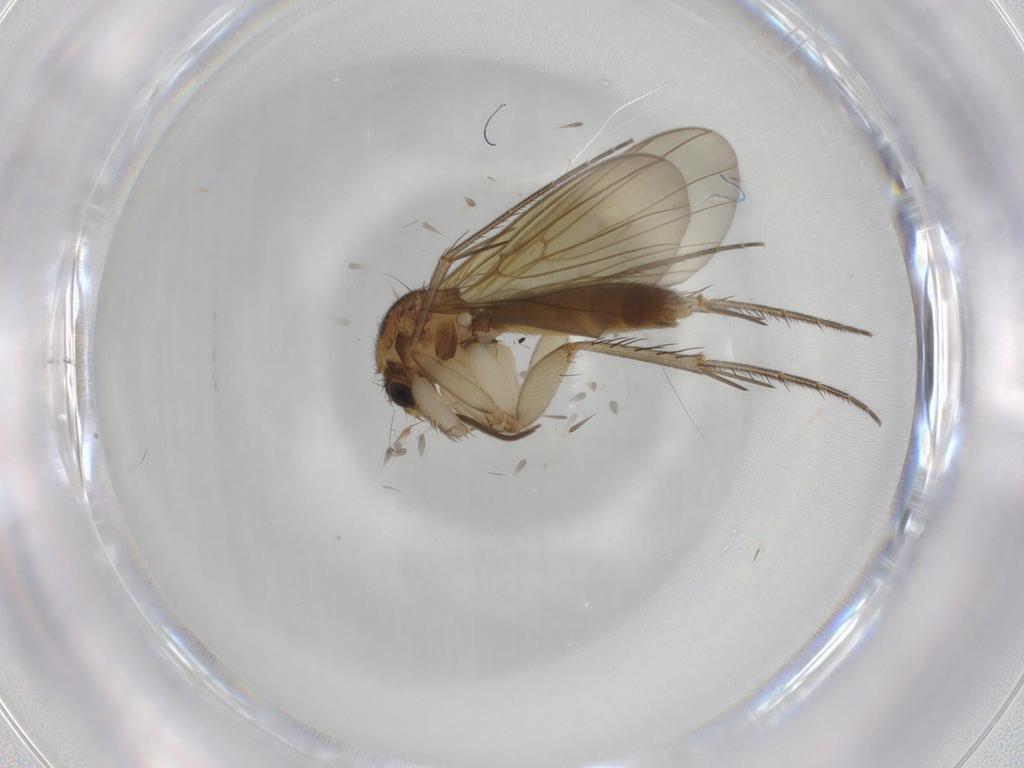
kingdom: Animalia
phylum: Arthropoda
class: Insecta
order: Diptera
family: Mycetophilidae
